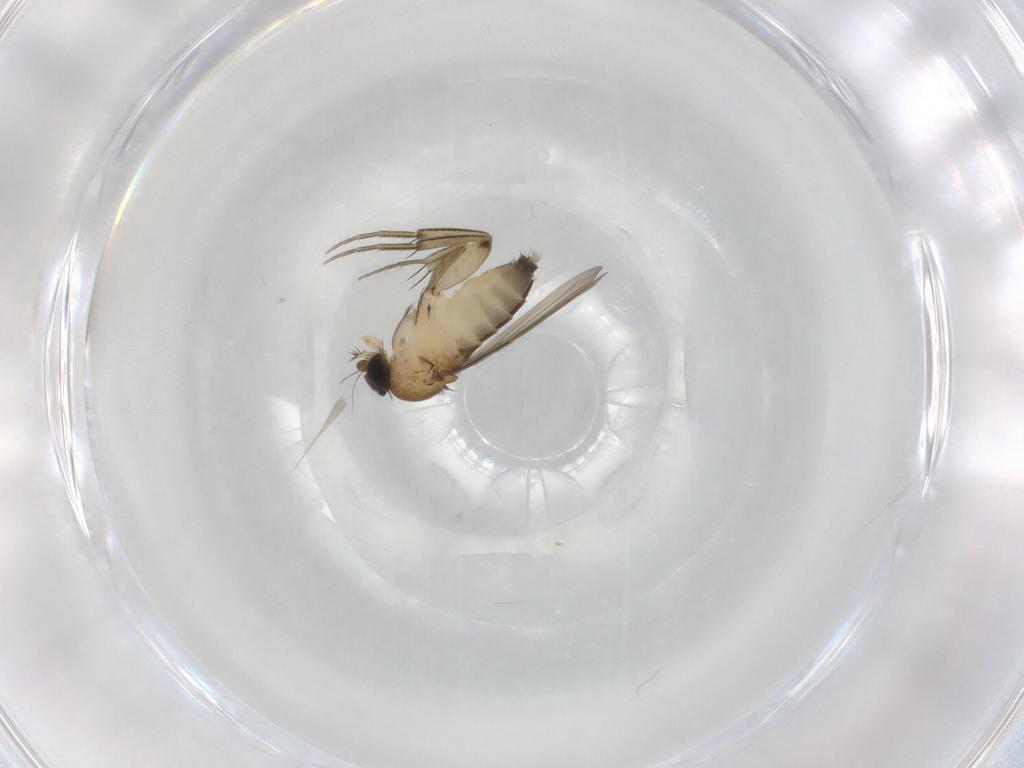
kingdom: Animalia
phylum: Arthropoda
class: Insecta
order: Diptera
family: Phoridae
